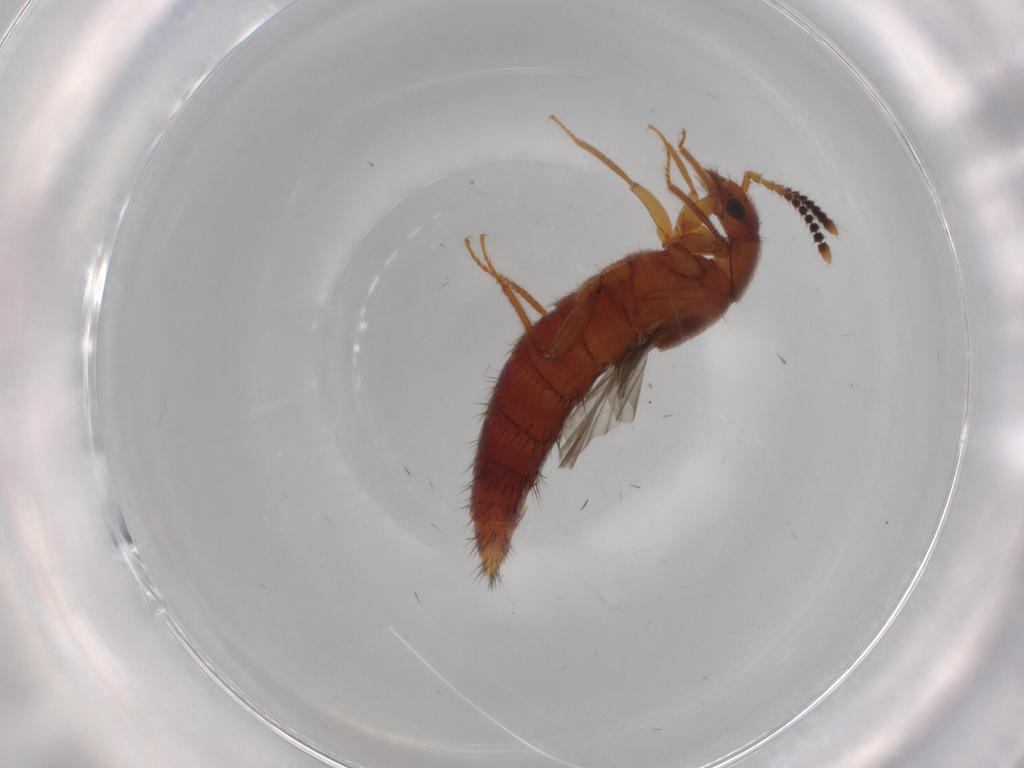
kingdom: Animalia
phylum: Arthropoda
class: Insecta
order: Coleoptera
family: Staphylinidae
